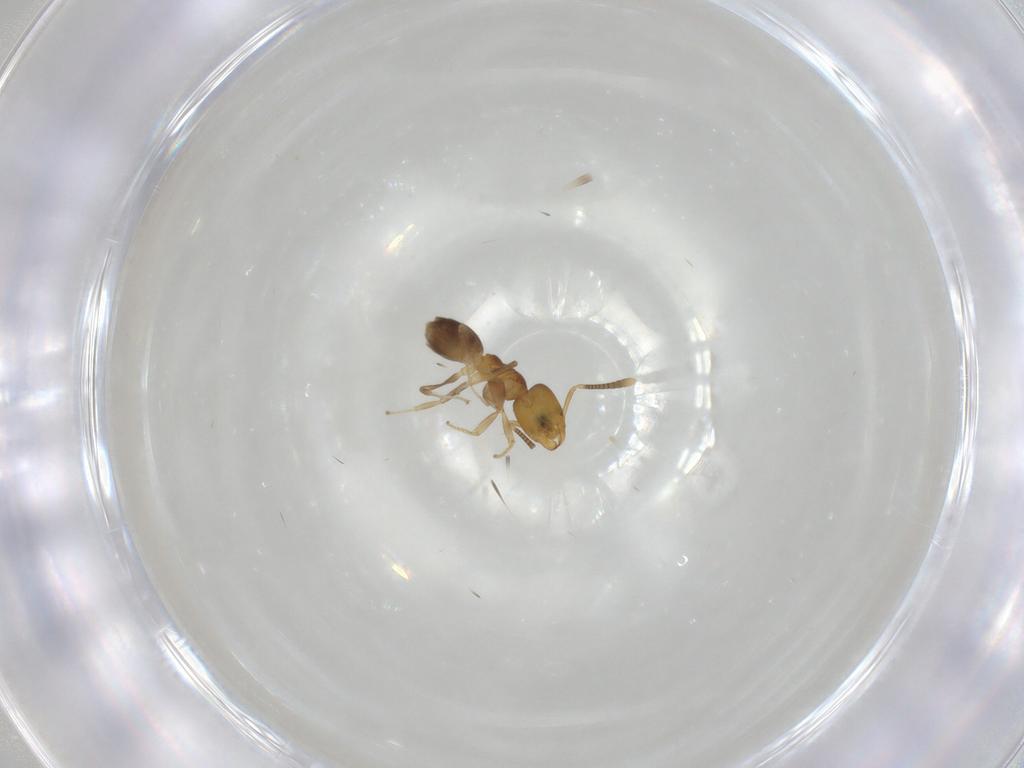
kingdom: Animalia
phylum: Arthropoda
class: Insecta
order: Hymenoptera
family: Formicidae
